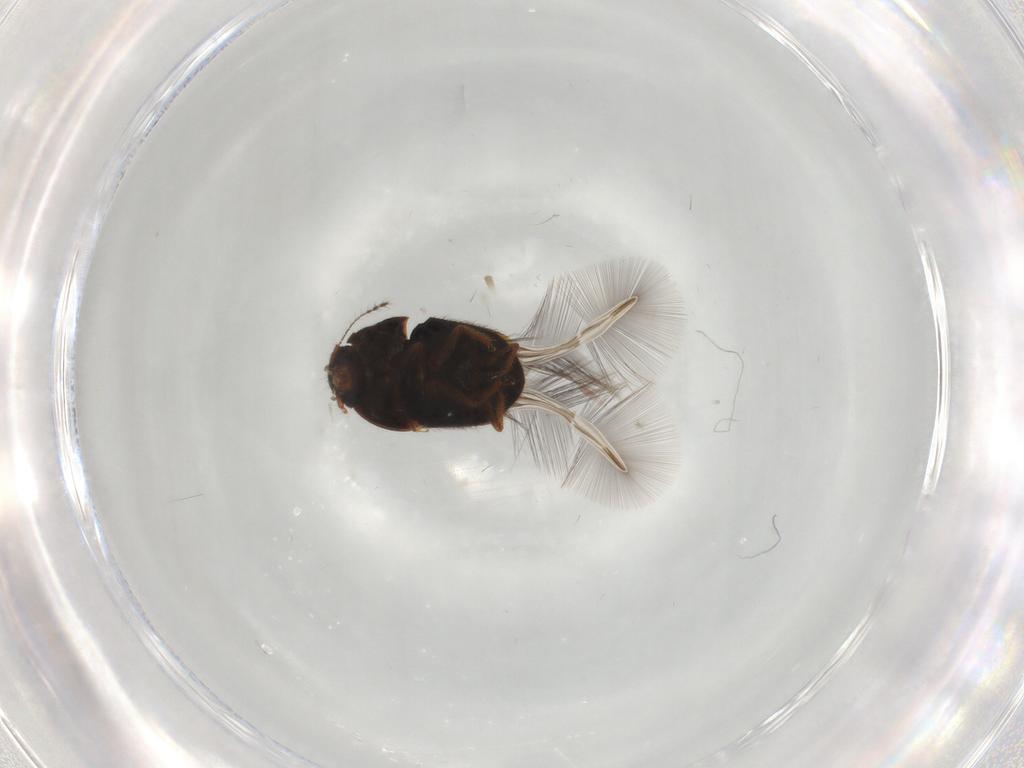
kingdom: Animalia
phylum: Arthropoda
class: Insecta
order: Coleoptera
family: Ptiliidae
